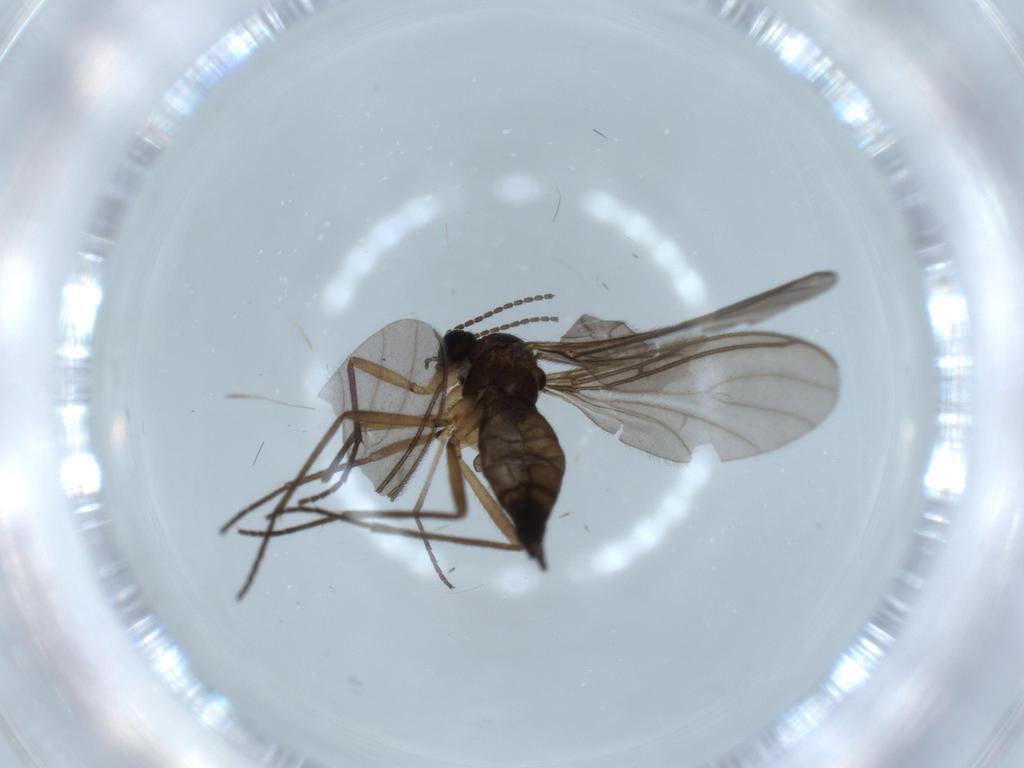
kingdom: Animalia
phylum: Arthropoda
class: Insecta
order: Diptera
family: Sciaridae
